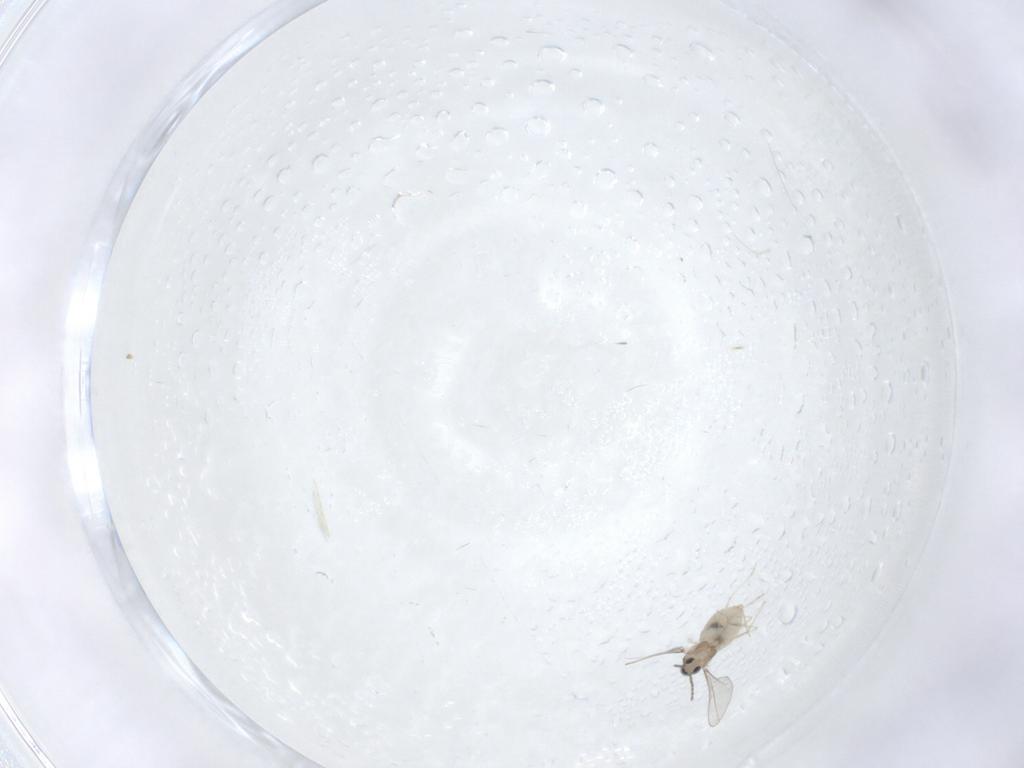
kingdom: Animalia
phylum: Arthropoda
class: Insecta
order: Diptera
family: Cecidomyiidae
